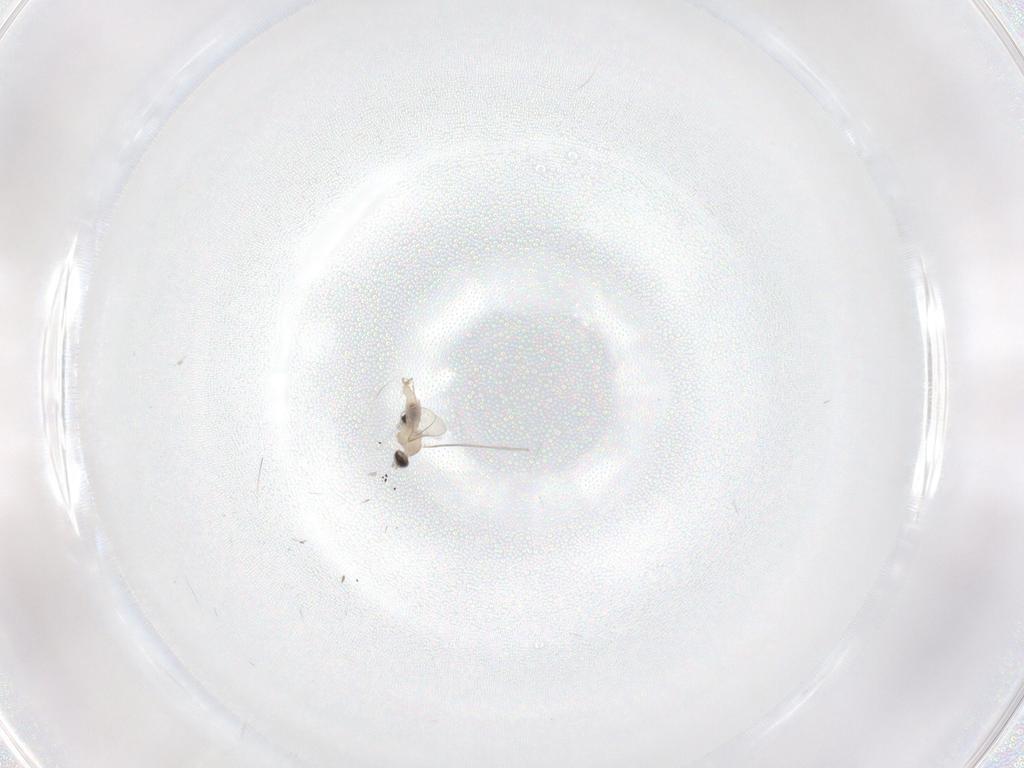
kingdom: Animalia
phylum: Arthropoda
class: Insecta
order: Diptera
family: Cecidomyiidae
